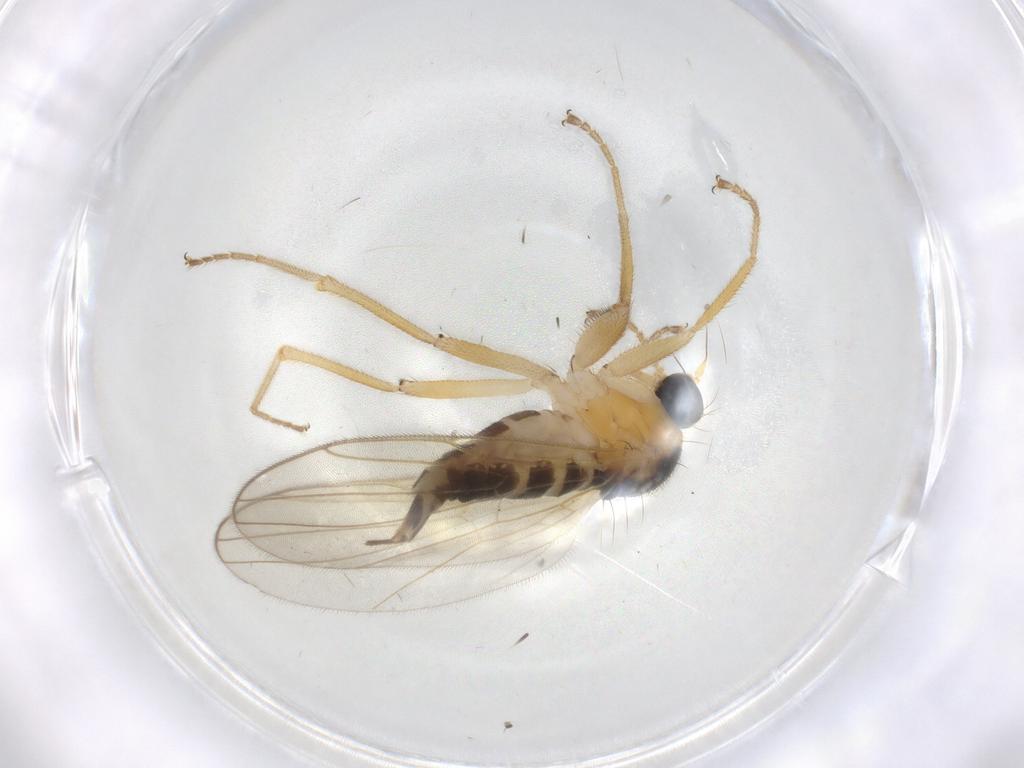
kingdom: Animalia
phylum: Arthropoda
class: Insecta
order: Diptera
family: Hybotidae
